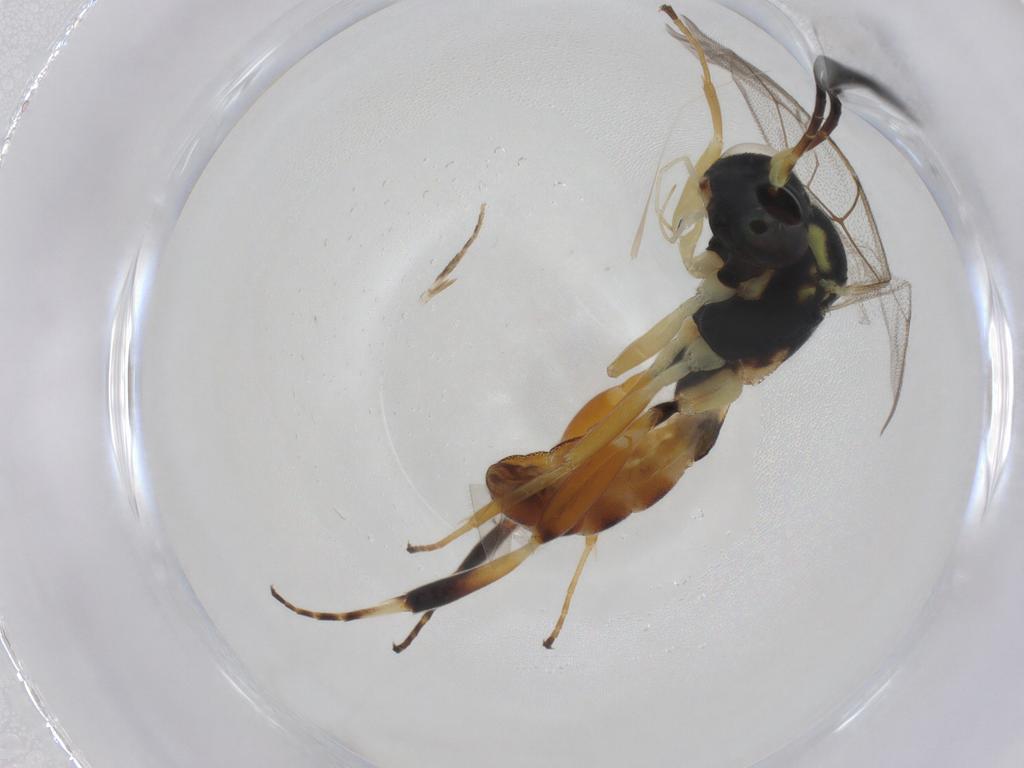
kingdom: Animalia
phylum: Arthropoda
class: Insecta
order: Hymenoptera
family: Ichneumonidae
